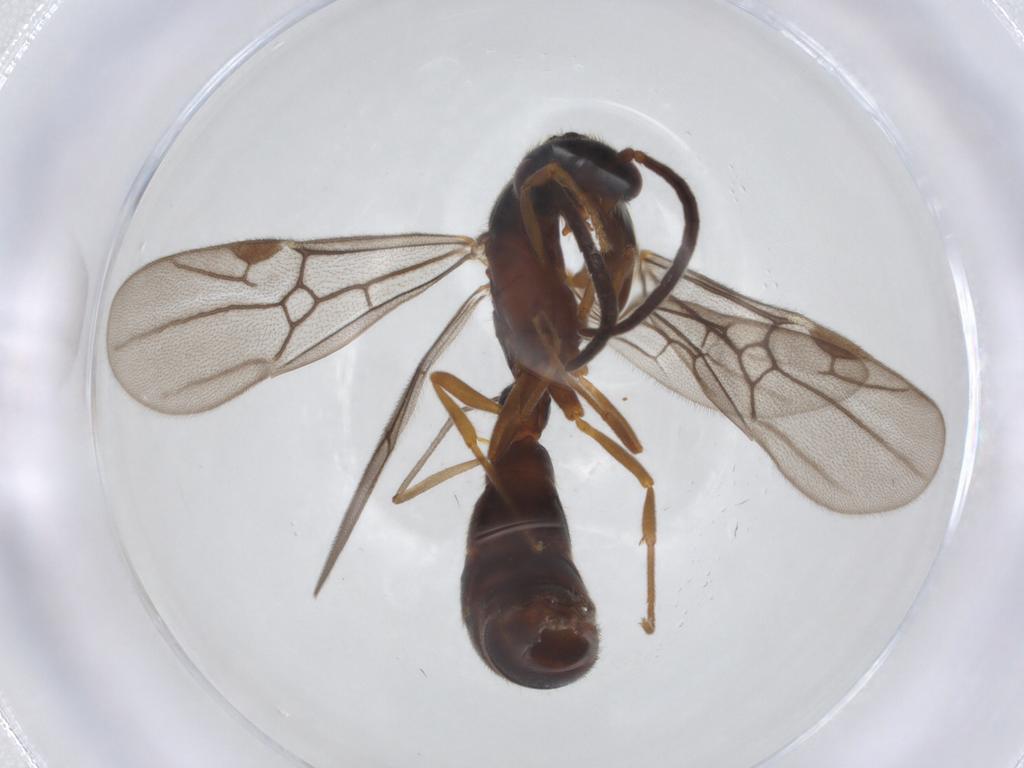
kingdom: Animalia
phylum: Arthropoda
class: Insecta
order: Hymenoptera
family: Formicidae
